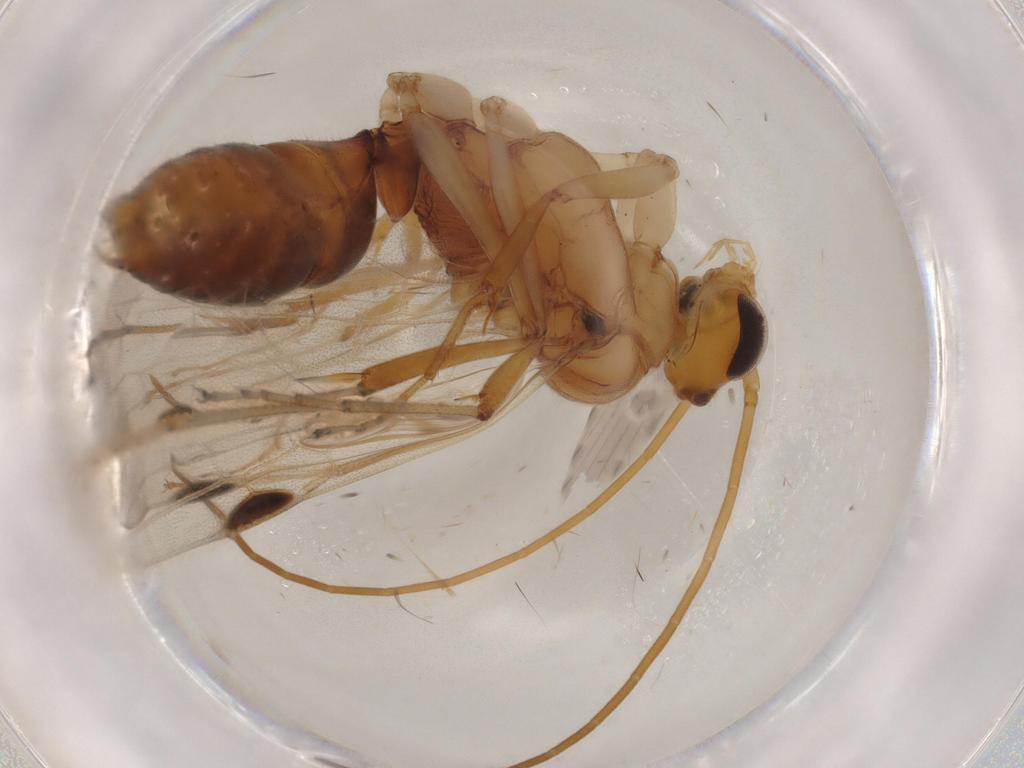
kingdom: Animalia
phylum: Arthropoda
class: Insecta
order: Hymenoptera
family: Formicidae
